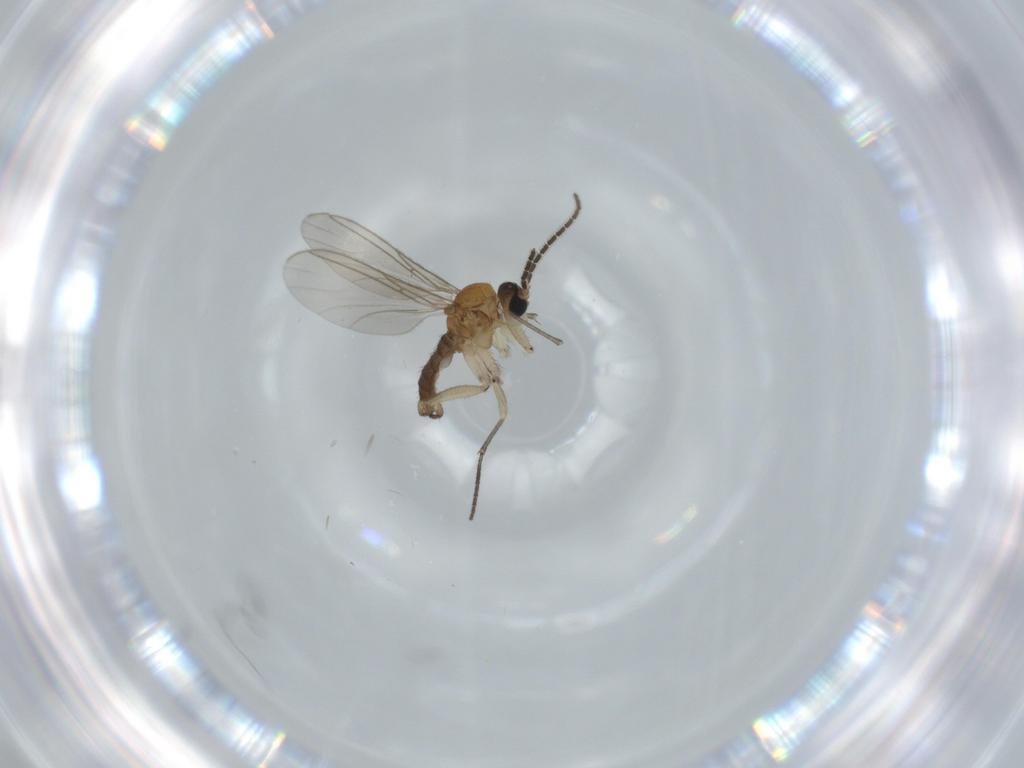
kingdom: Animalia
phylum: Arthropoda
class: Insecta
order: Diptera
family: Sciaridae
